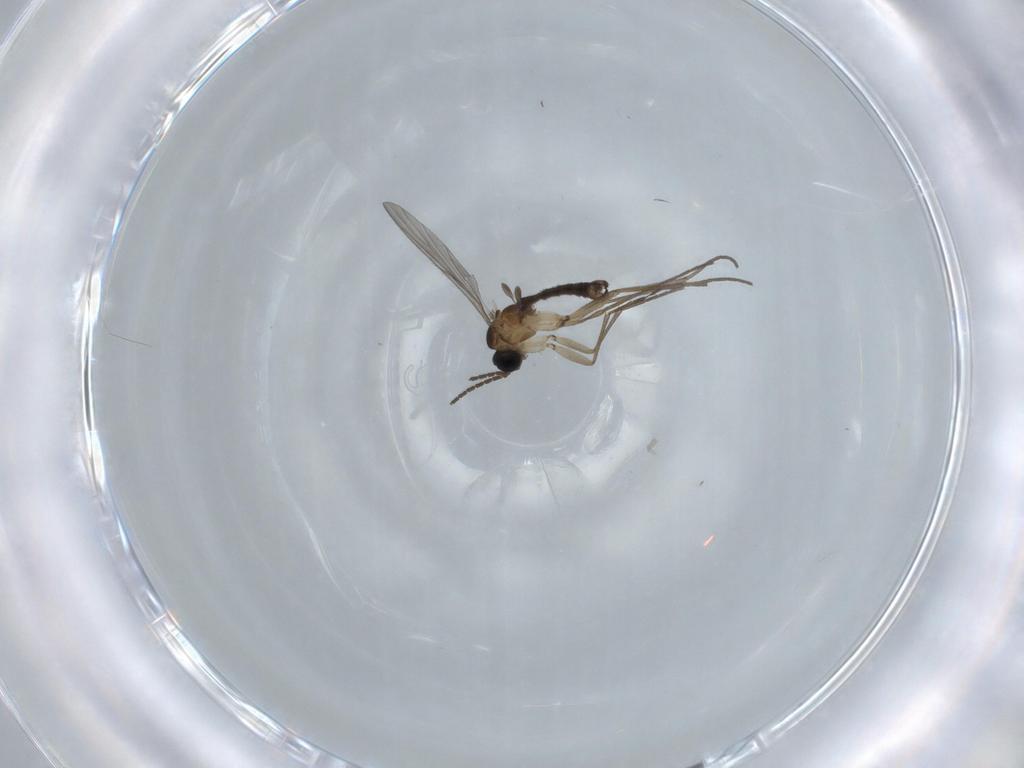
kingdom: Animalia
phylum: Arthropoda
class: Insecta
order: Diptera
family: Sciaridae
